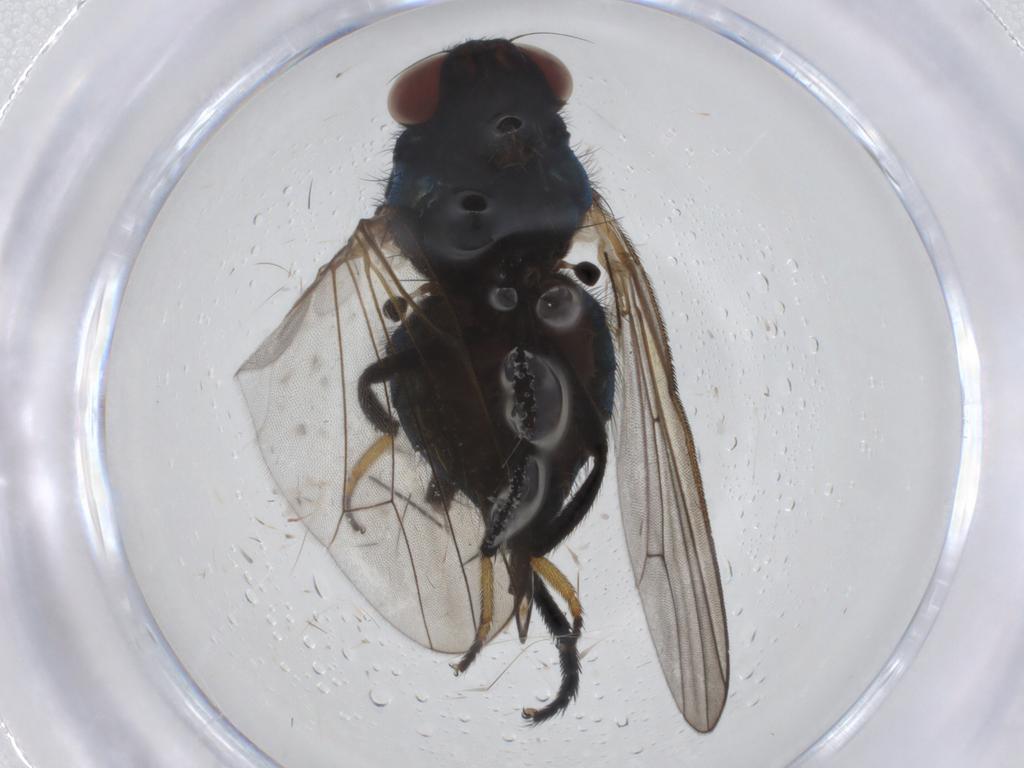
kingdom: Animalia
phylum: Arthropoda
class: Insecta
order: Diptera
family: Lonchaeidae
